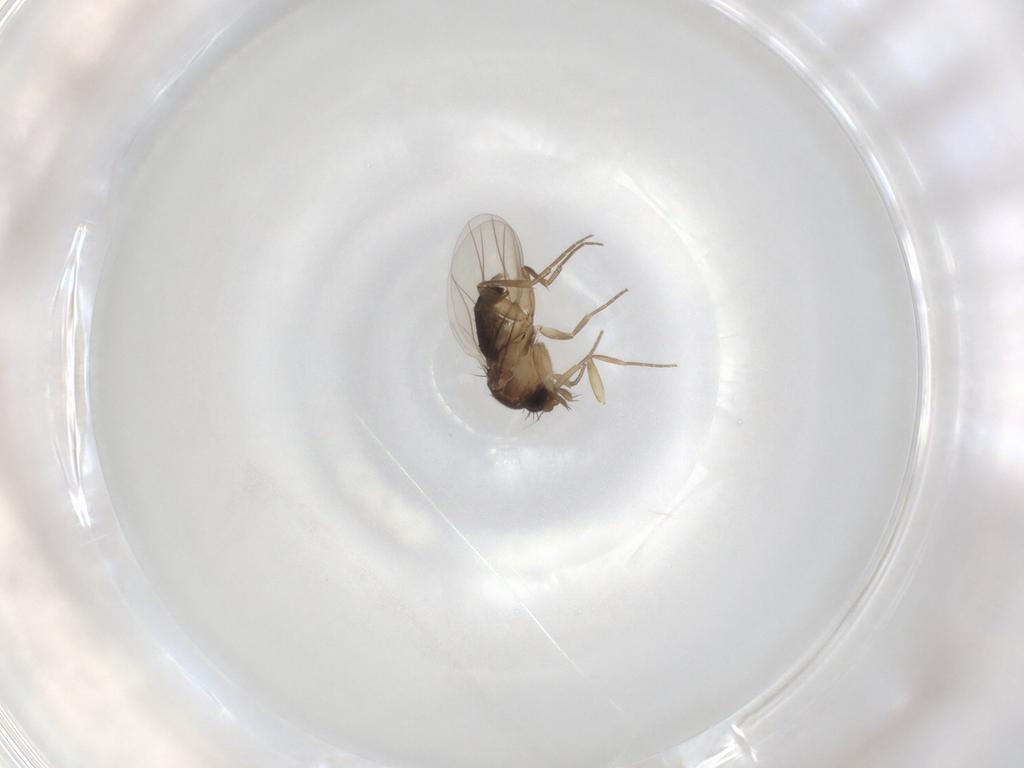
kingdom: Animalia
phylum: Arthropoda
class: Insecta
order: Diptera
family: Phoridae
